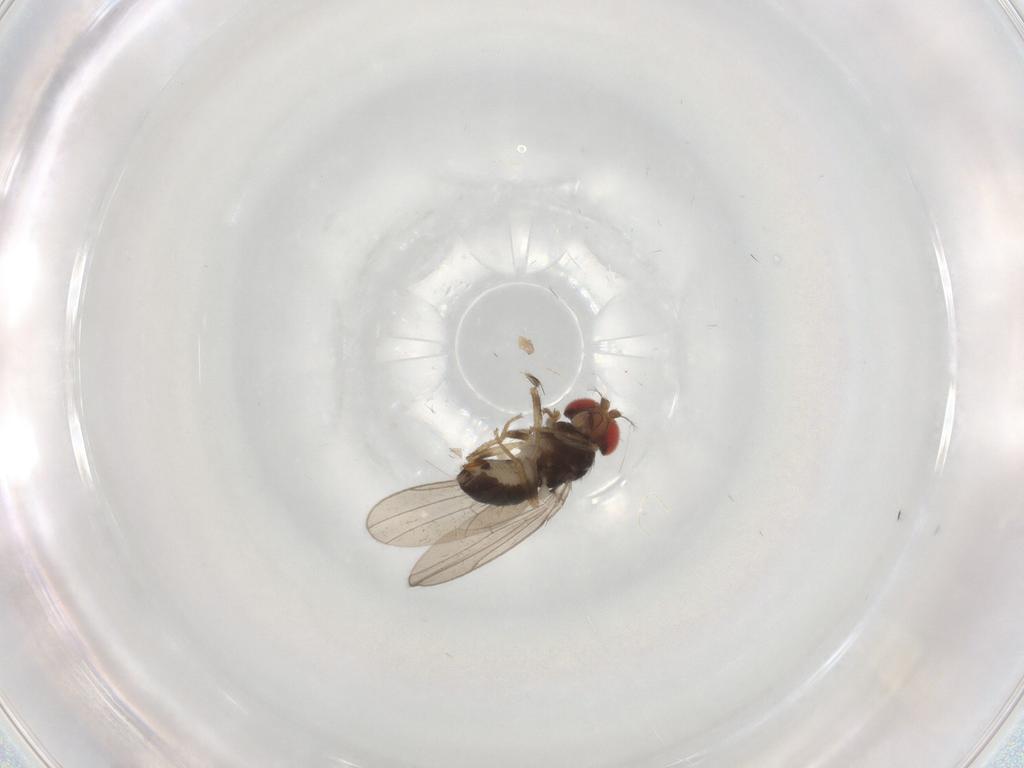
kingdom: Animalia
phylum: Arthropoda
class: Insecta
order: Diptera
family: Drosophilidae
